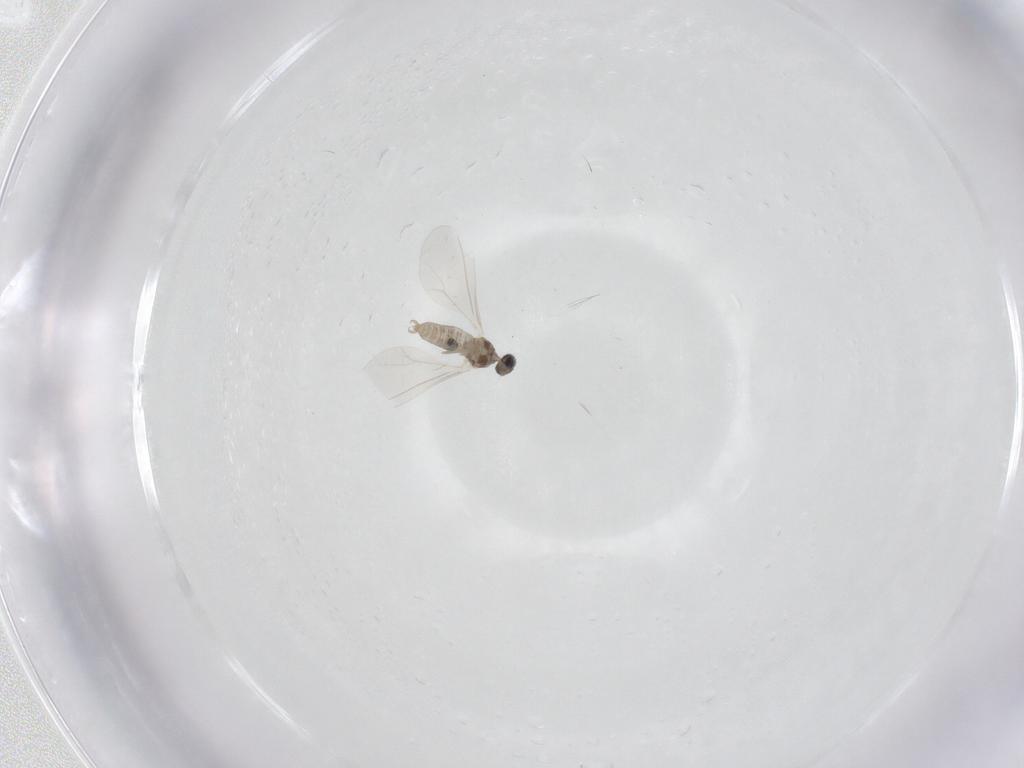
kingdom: Animalia
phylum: Arthropoda
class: Insecta
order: Diptera
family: Cecidomyiidae
